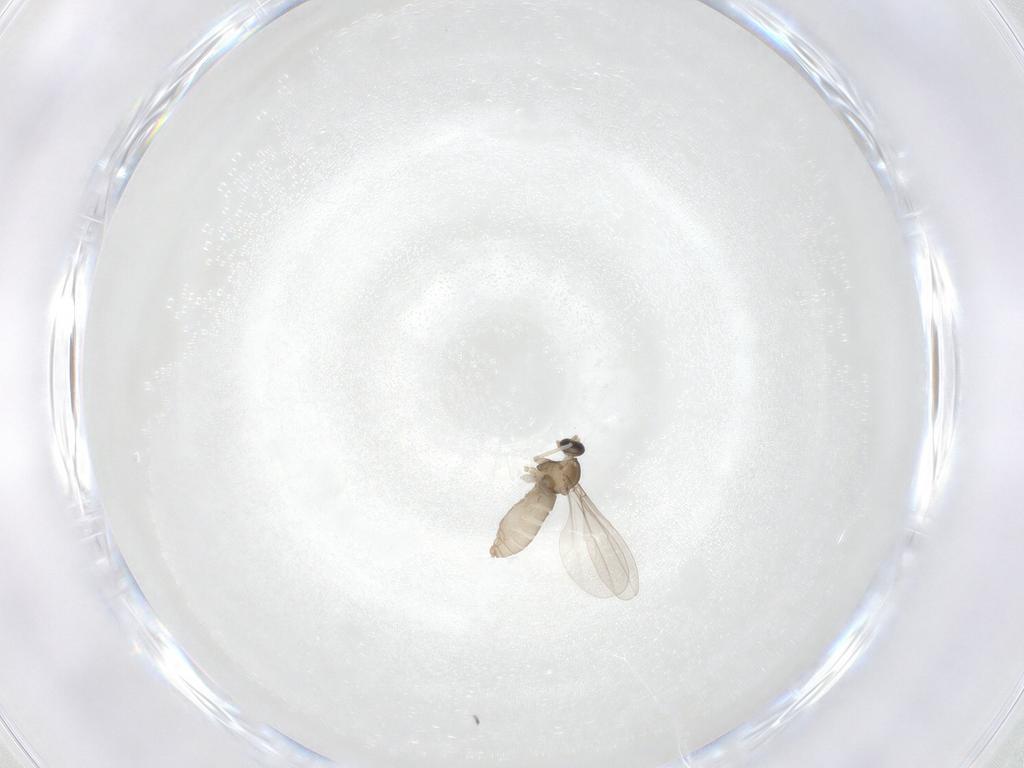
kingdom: Animalia
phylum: Arthropoda
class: Insecta
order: Diptera
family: Cecidomyiidae
